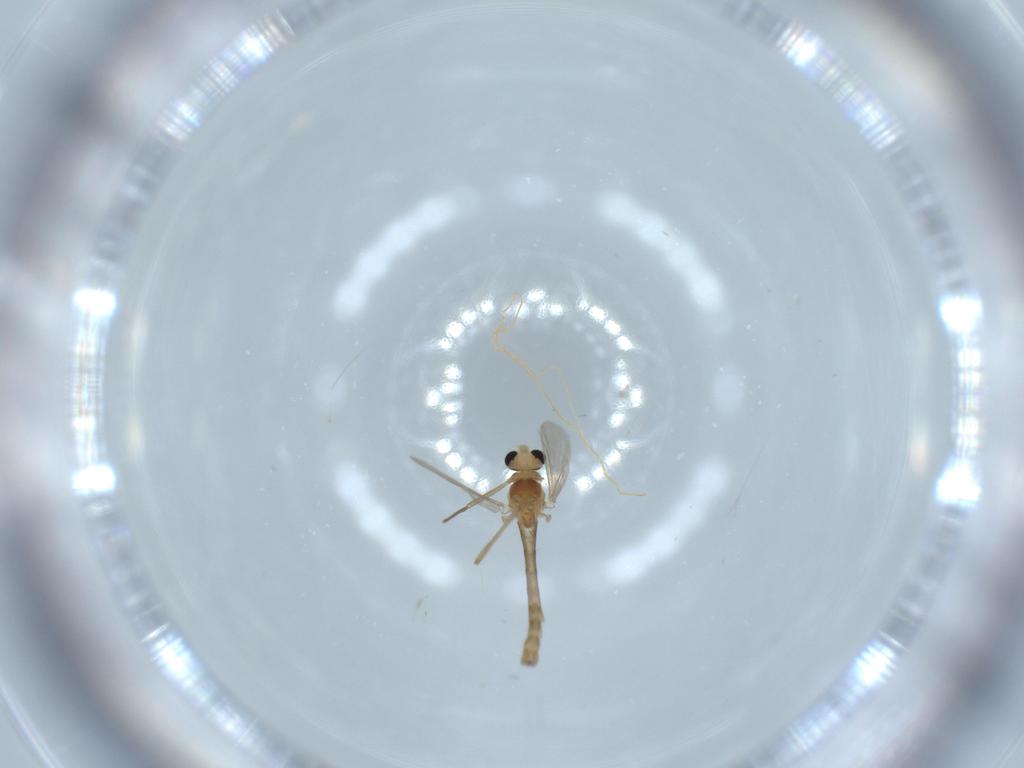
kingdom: Animalia
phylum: Arthropoda
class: Insecta
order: Diptera
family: Chironomidae
